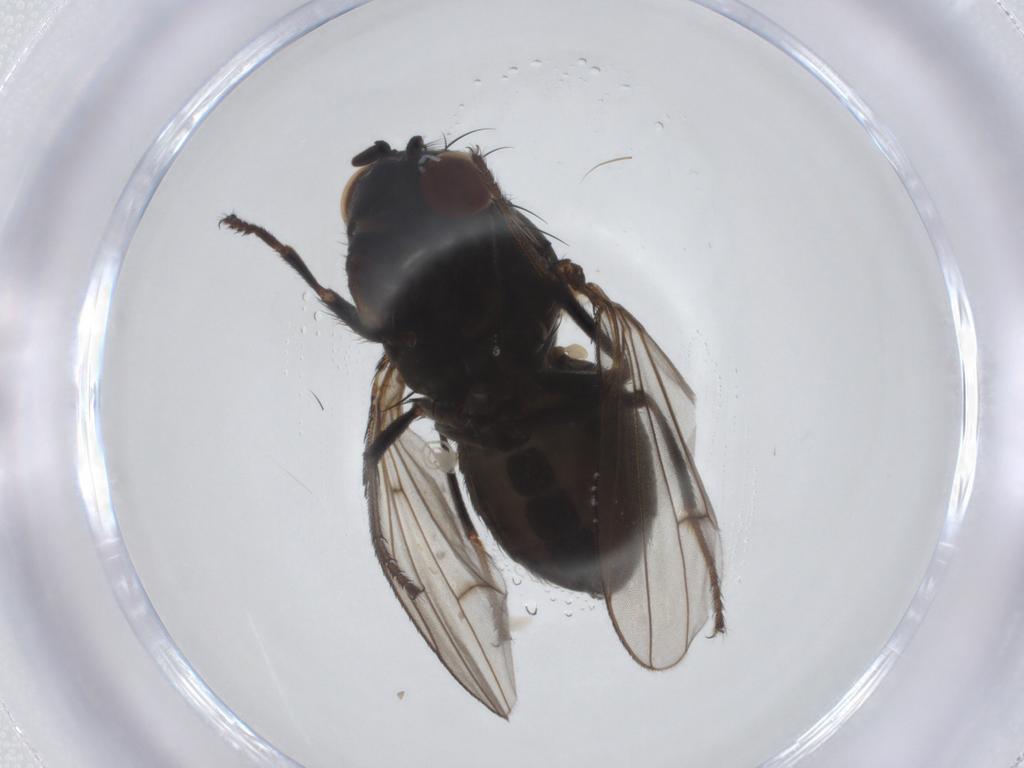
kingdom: Animalia
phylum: Arthropoda
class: Insecta
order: Diptera
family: Ephydridae
